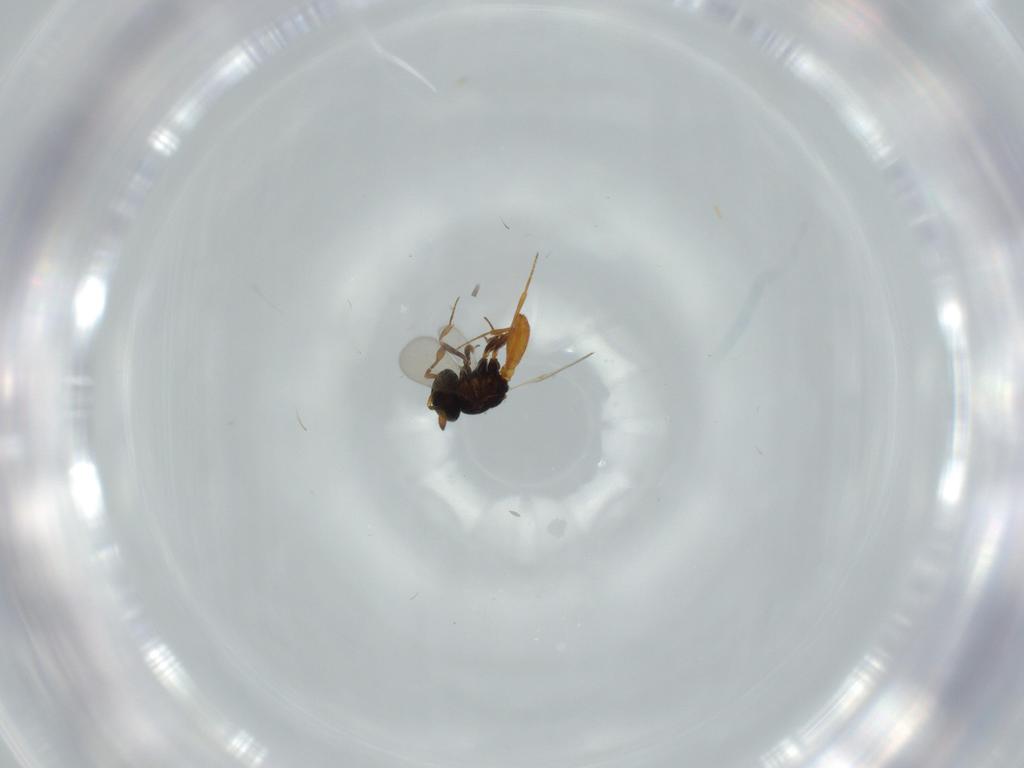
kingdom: Animalia
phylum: Arthropoda
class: Insecta
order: Hymenoptera
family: Scelionidae
